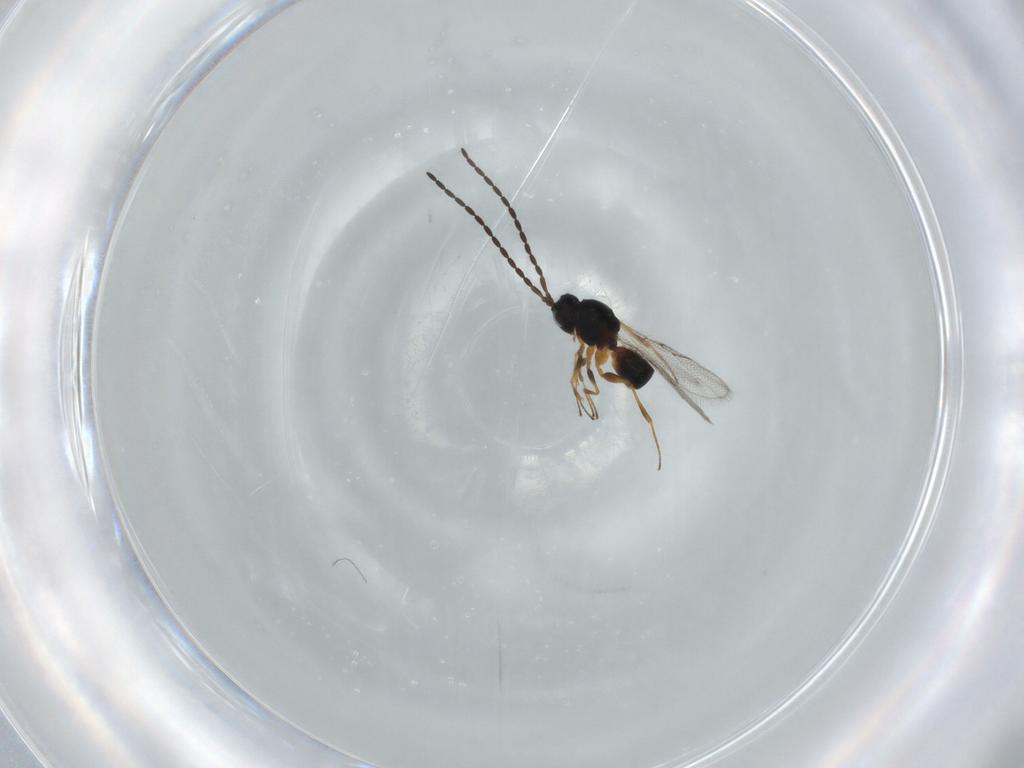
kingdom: Animalia
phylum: Arthropoda
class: Insecta
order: Hymenoptera
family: Figitidae
